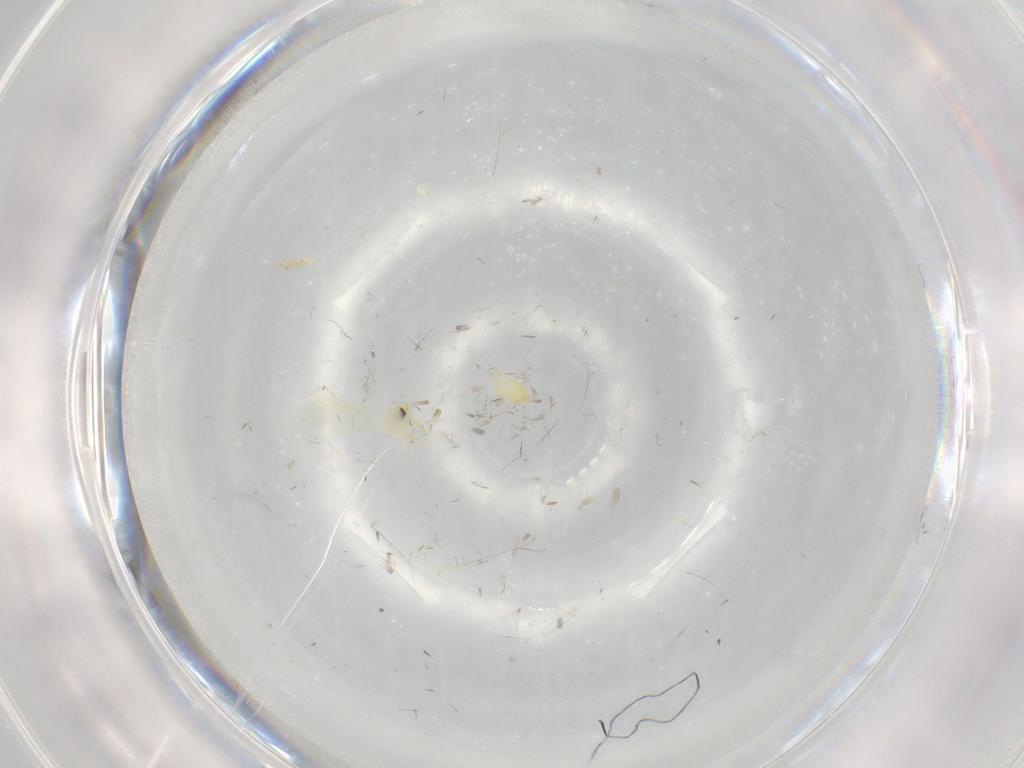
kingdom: Animalia
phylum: Arthropoda
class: Insecta
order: Hemiptera
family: Aleyrodidae
